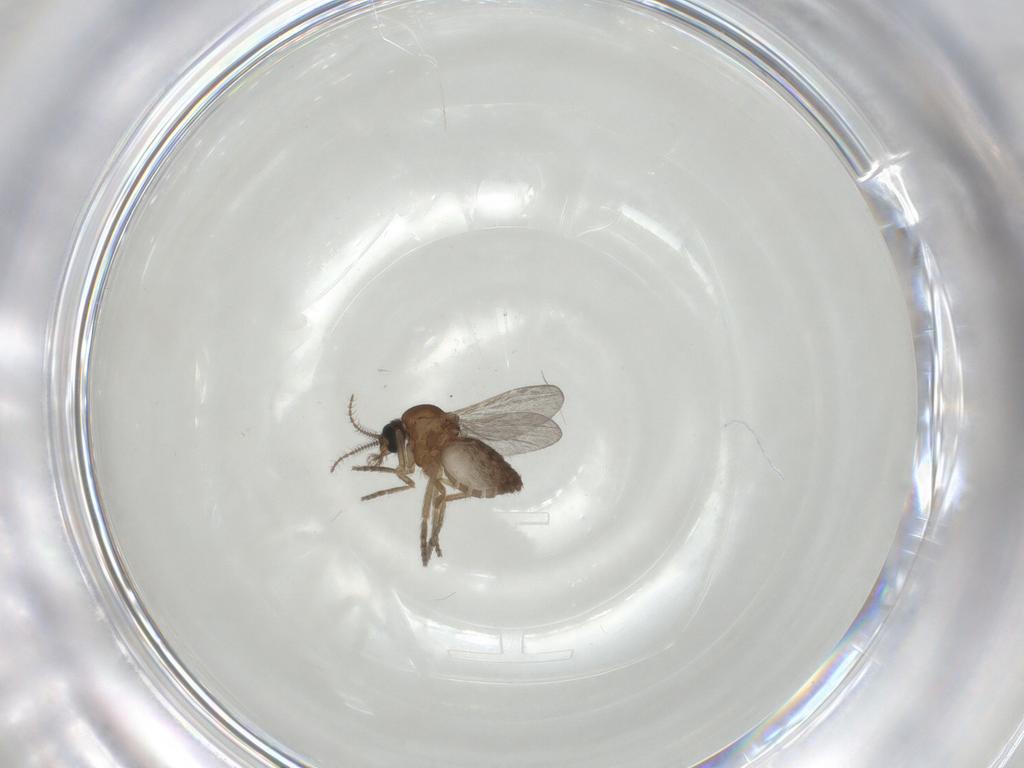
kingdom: Animalia
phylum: Arthropoda
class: Insecta
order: Diptera
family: Ceratopogonidae
